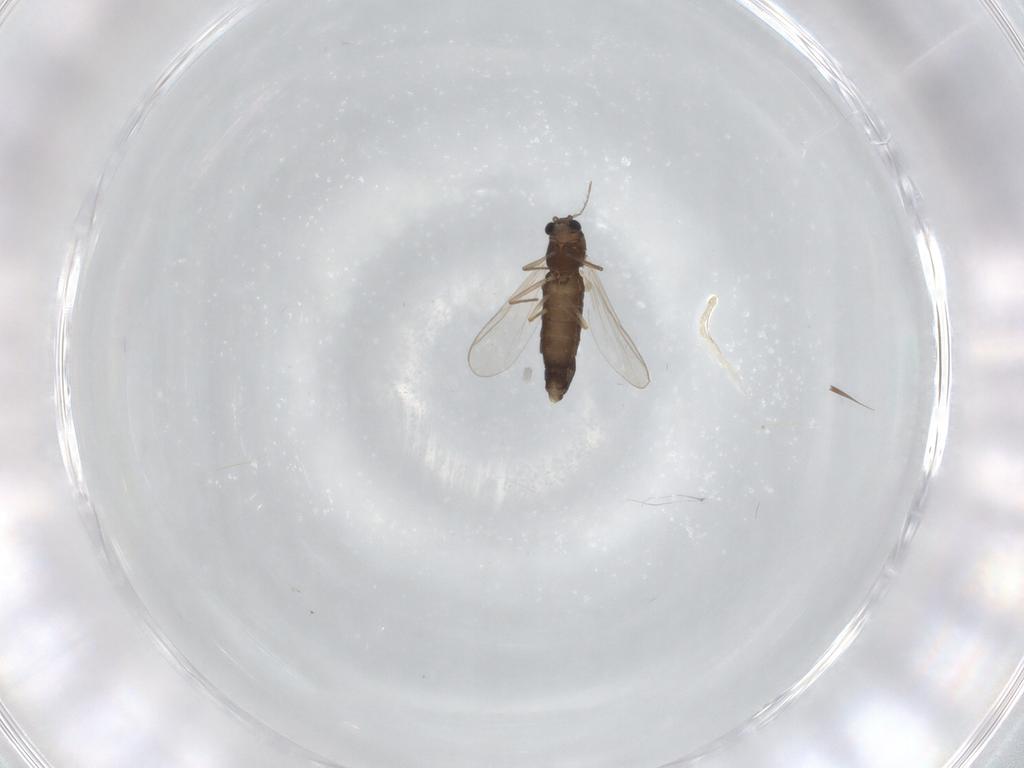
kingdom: Animalia
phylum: Arthropoda
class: Insecta
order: Diptera
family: Chironomidae
